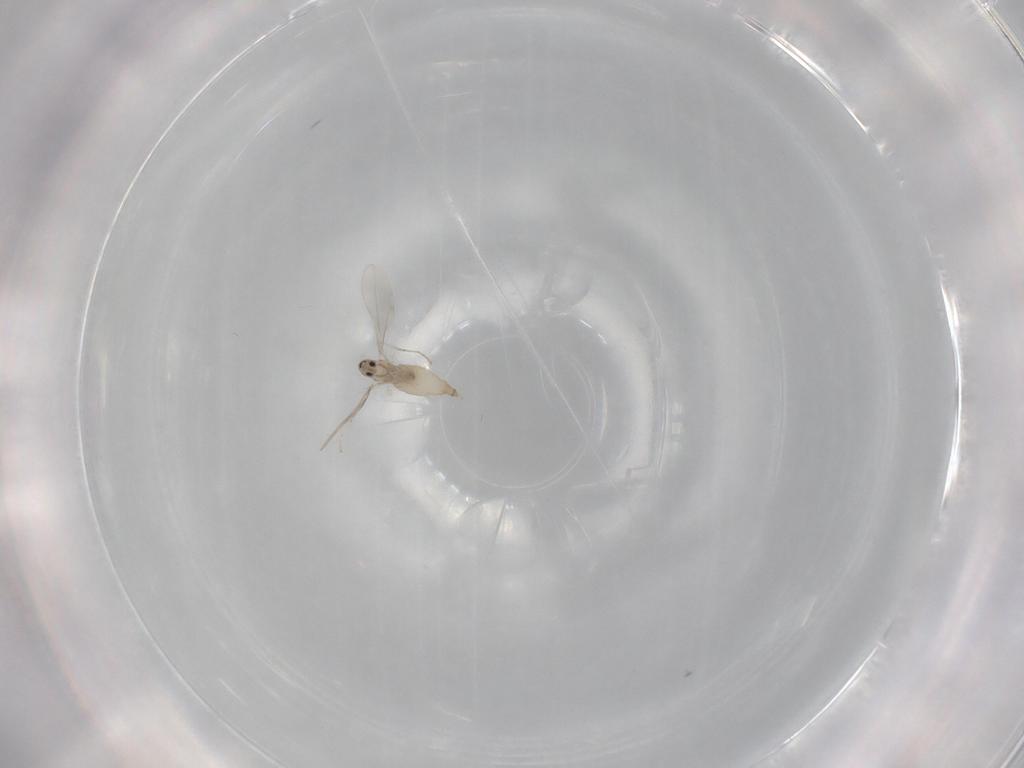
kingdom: Animalia
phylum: Arthropoda
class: Insecta
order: Diptera
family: Cecidomyiidae
